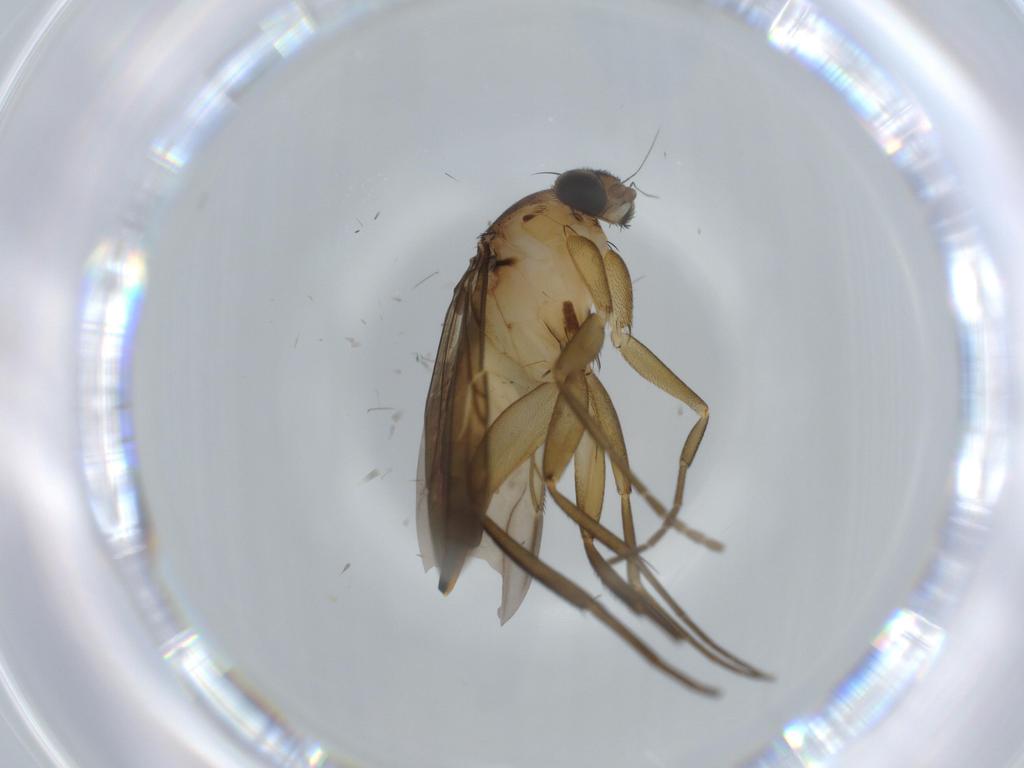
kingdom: Animalia
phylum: Arthropoda
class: Insecta
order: Diptera
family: Phoridae
